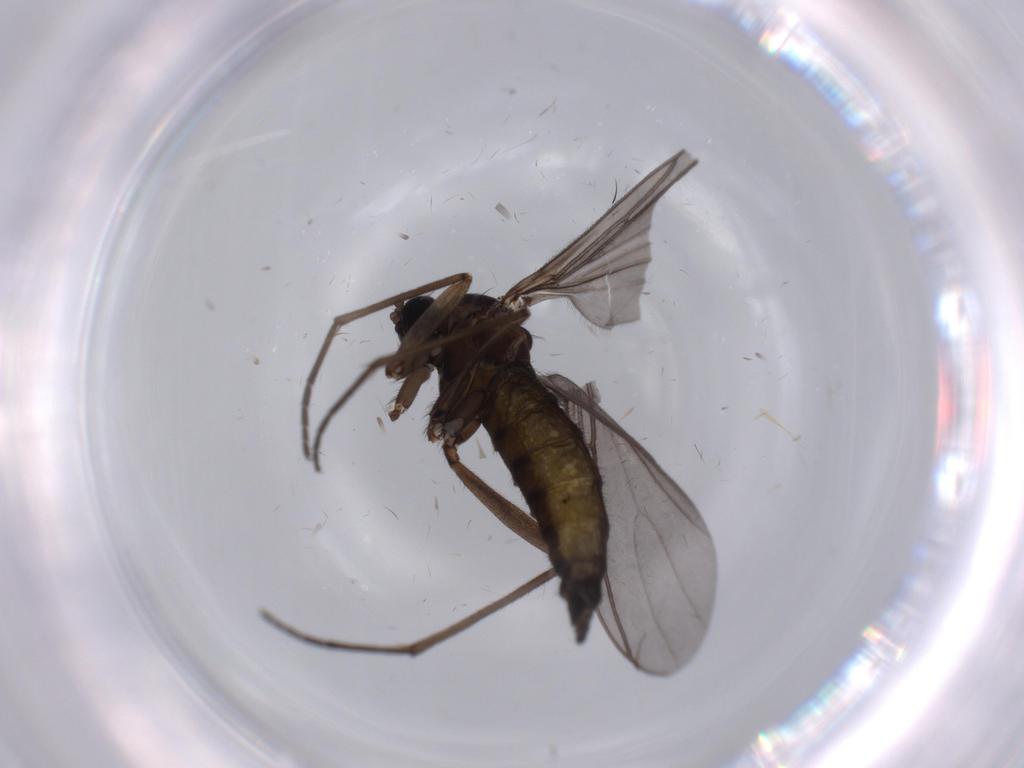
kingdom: Animalia
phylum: Arthropoda
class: Insecta
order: Diptera
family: Sciaridae
